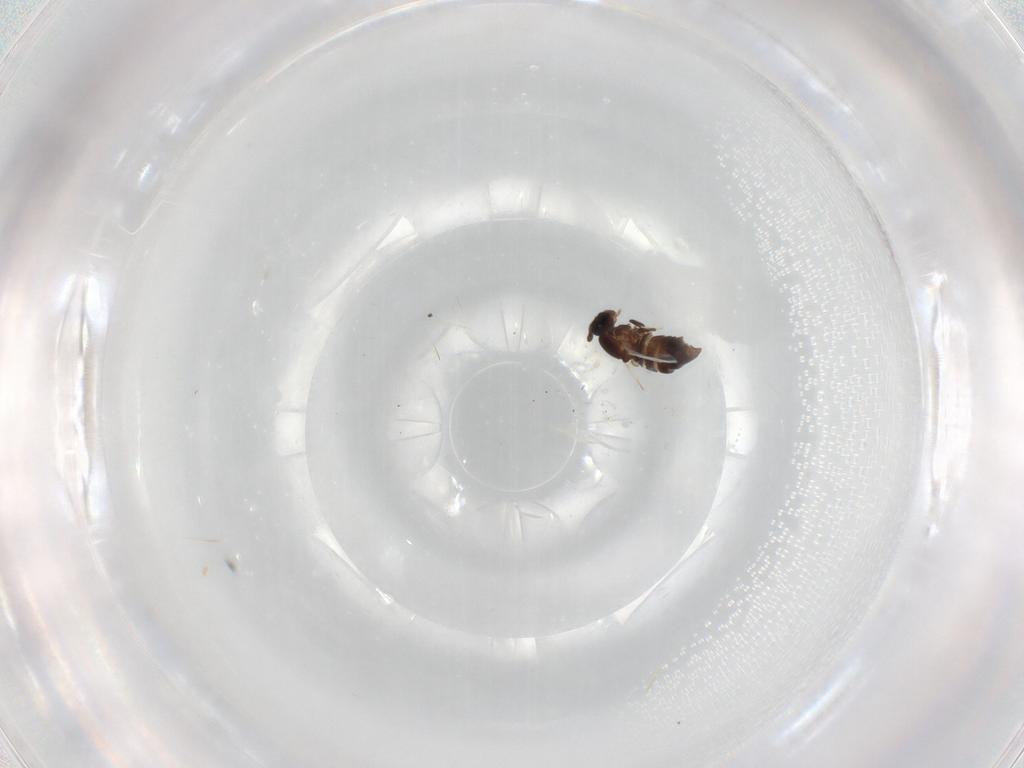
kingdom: Animalia
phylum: Arthropoda
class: Insecta
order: Diptera
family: Scatopsidae
